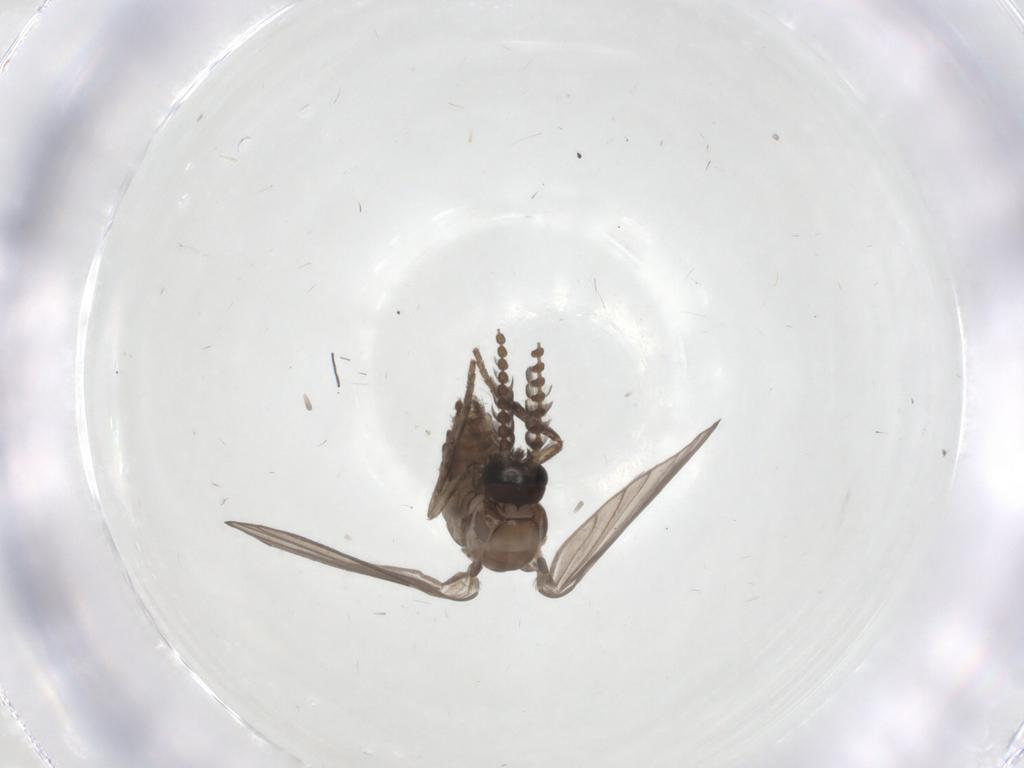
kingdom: Animalia
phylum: Arthropoda
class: Insecta
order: Diptera
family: Psychodidae
